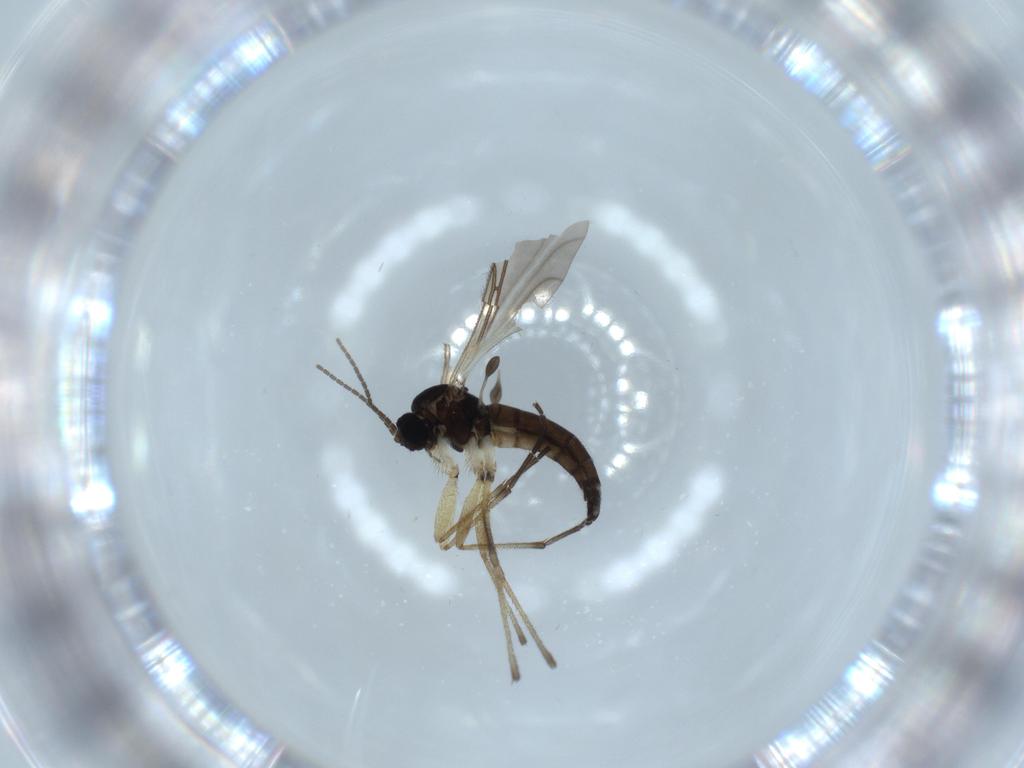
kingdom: Animalia
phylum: Arthropoda
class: Insecta
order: Diptera
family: Sciaridae
